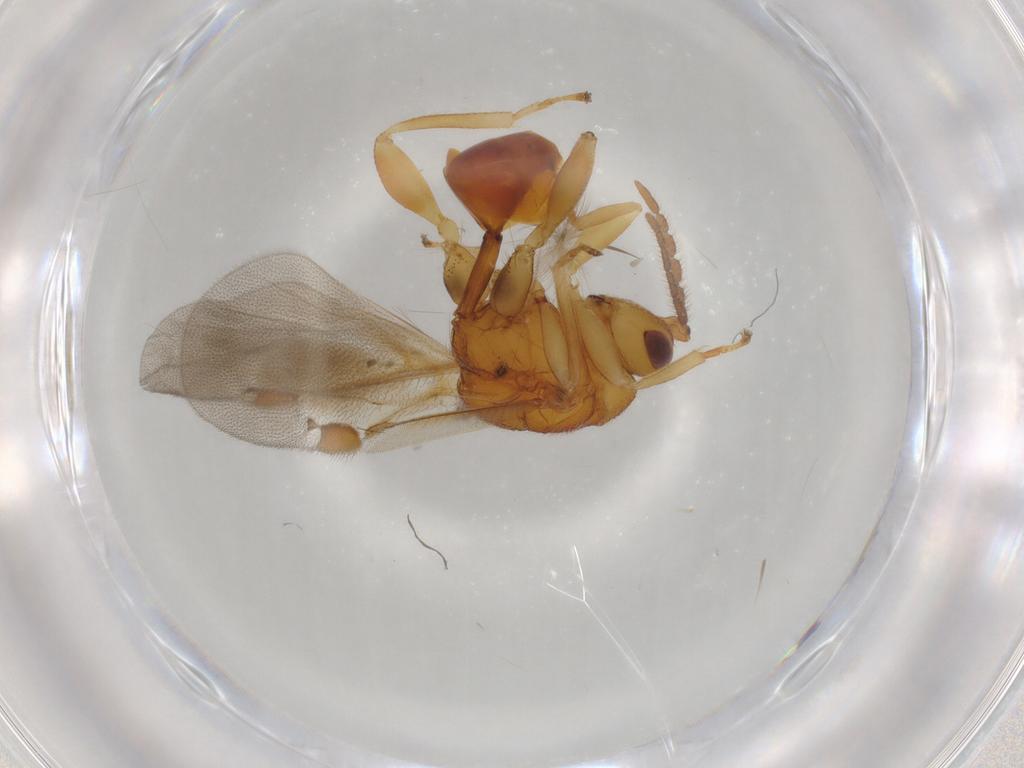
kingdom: Animalia
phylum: Arthropoda
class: Insecta
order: Hymenoptera
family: Eurytomidae
